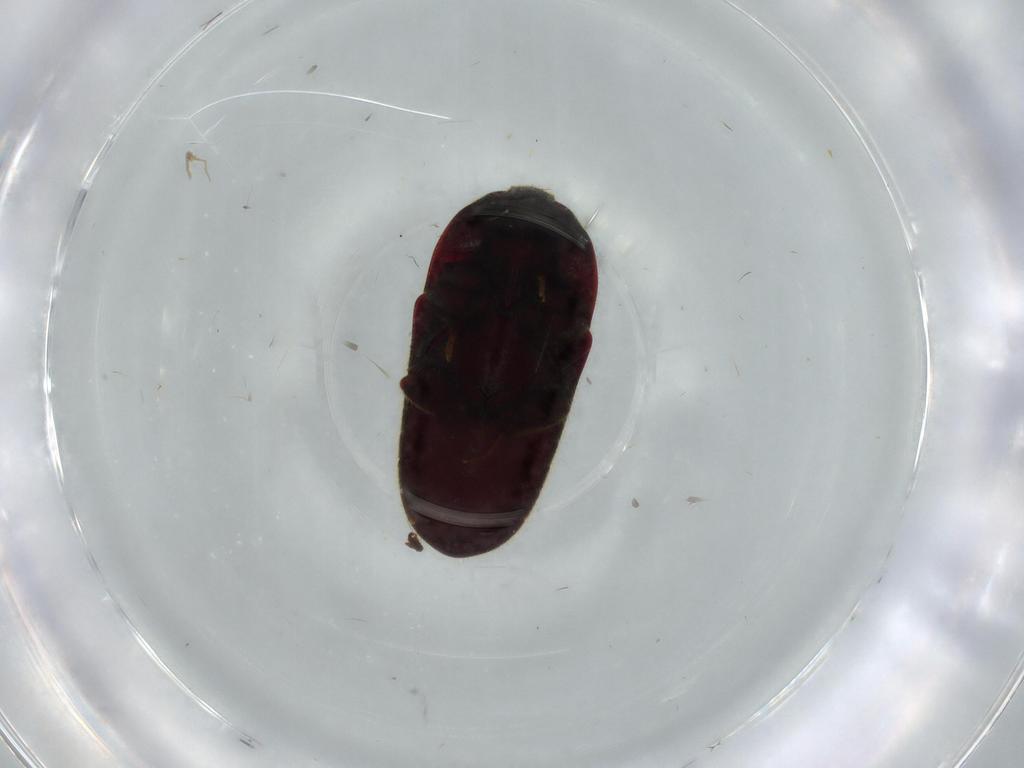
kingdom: Animalia
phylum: Arthropoda
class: Insecta
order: Coleoptera
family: Throscidae
